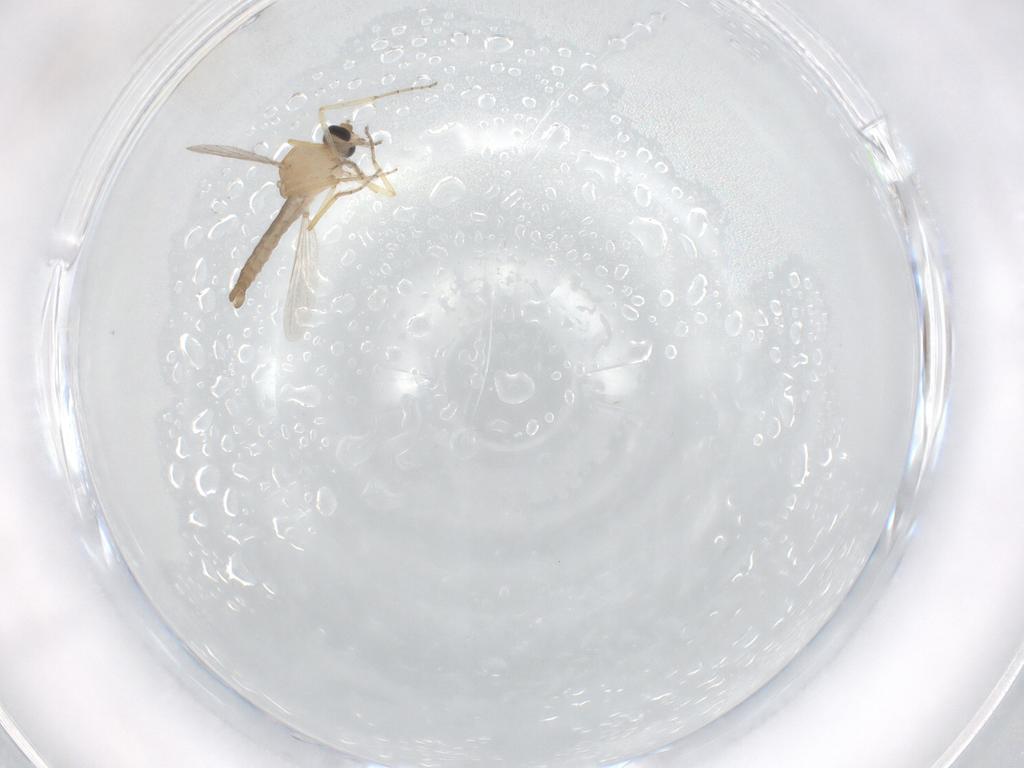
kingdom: Animalia
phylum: Arthropoda
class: Insecta
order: Diptera
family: Ceratopogonidae
